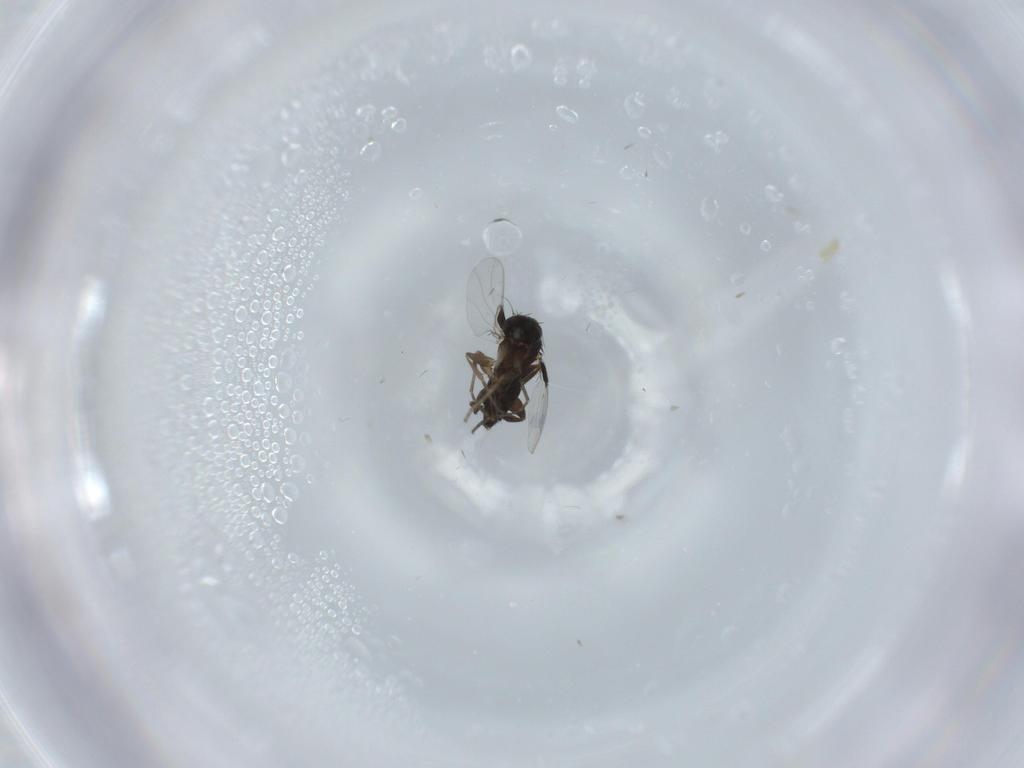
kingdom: Animalia
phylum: Arthropoda
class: Insecta
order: Diptera
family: Phoridae
